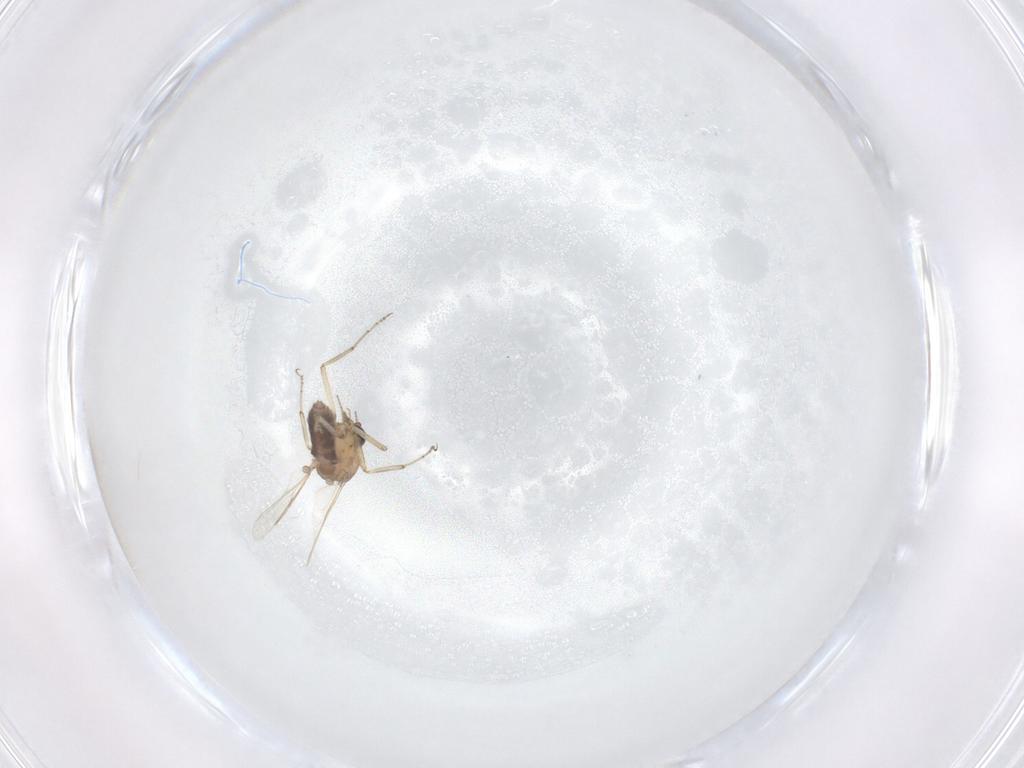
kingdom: Animalia
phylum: Arthropoda
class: Insecta
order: Diptera
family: Ceratopogonidae
